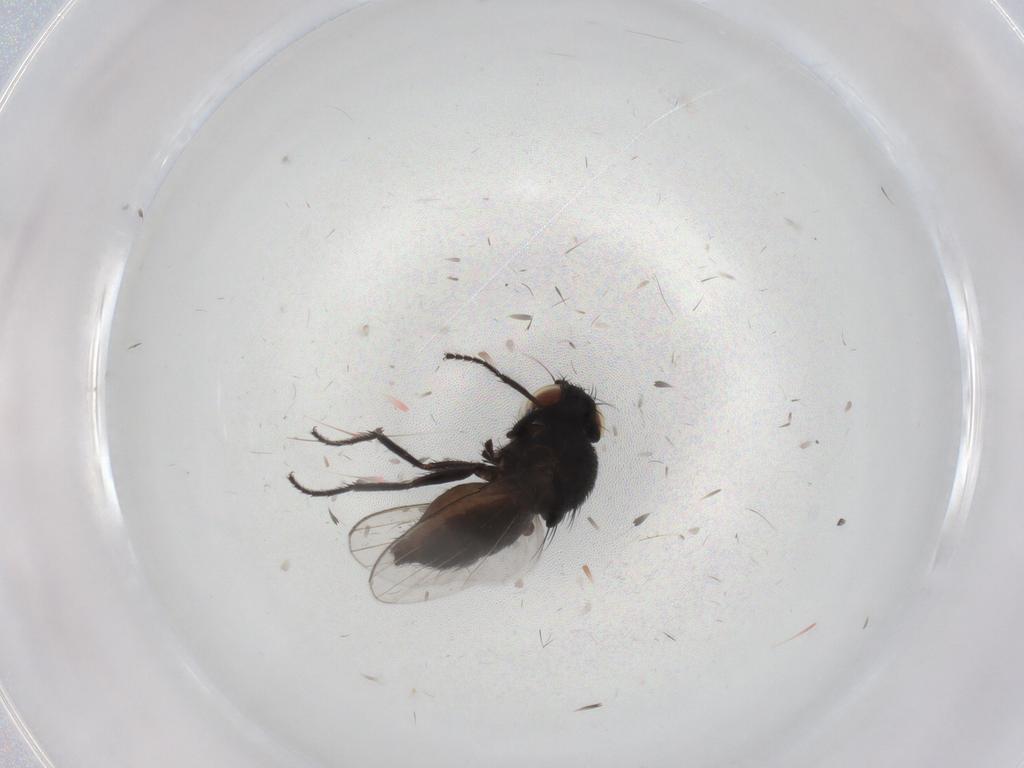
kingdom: Animalia
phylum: Arthropoda
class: Insecta
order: Diptera
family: Milichiidae
